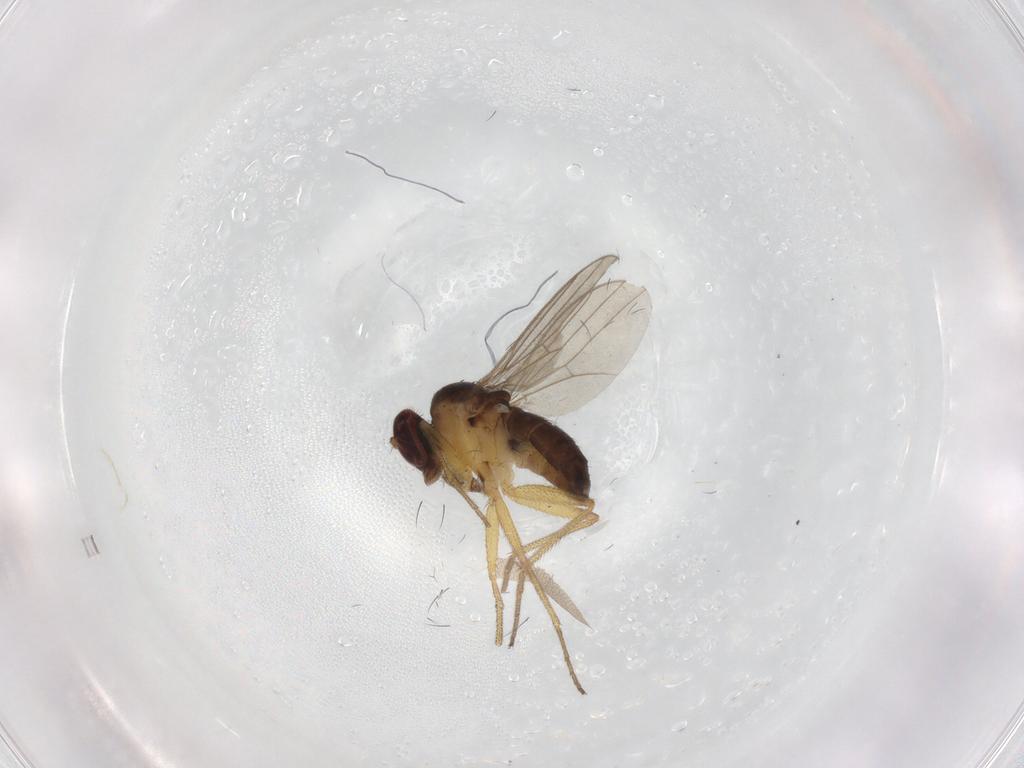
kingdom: Animalia
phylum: Arthropoda
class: Insecta
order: Diptera
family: Dolichopodidae
